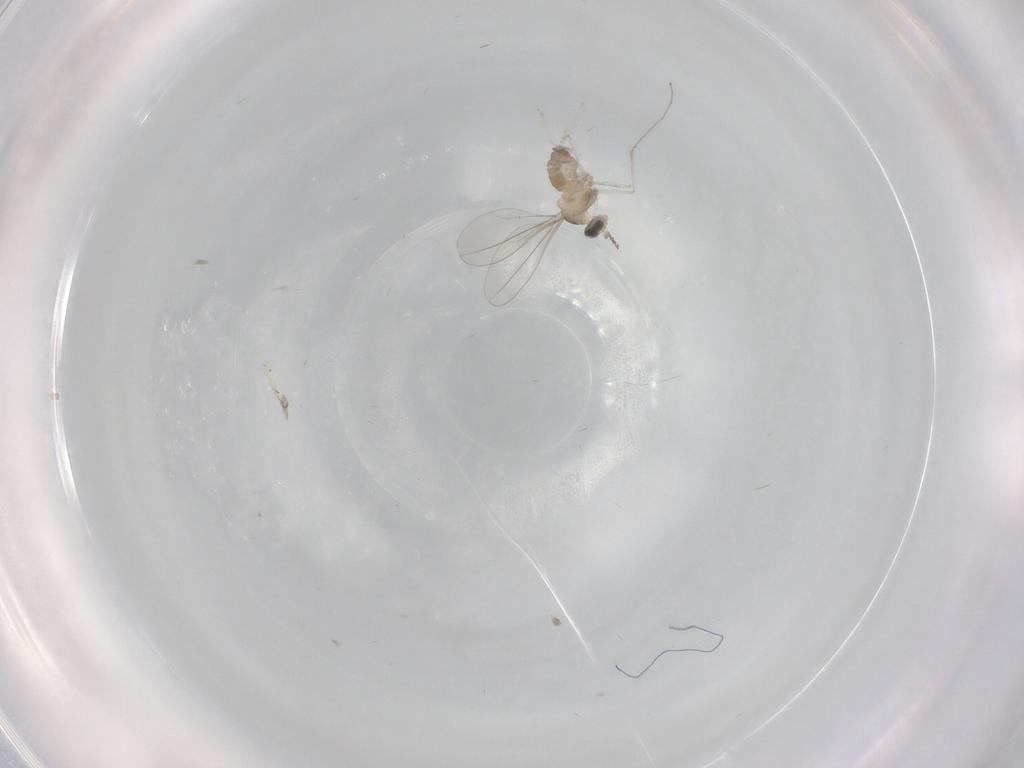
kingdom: Animalia
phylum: Arthropoda
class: Insecta
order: Diptera
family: Cecidomyiidae
